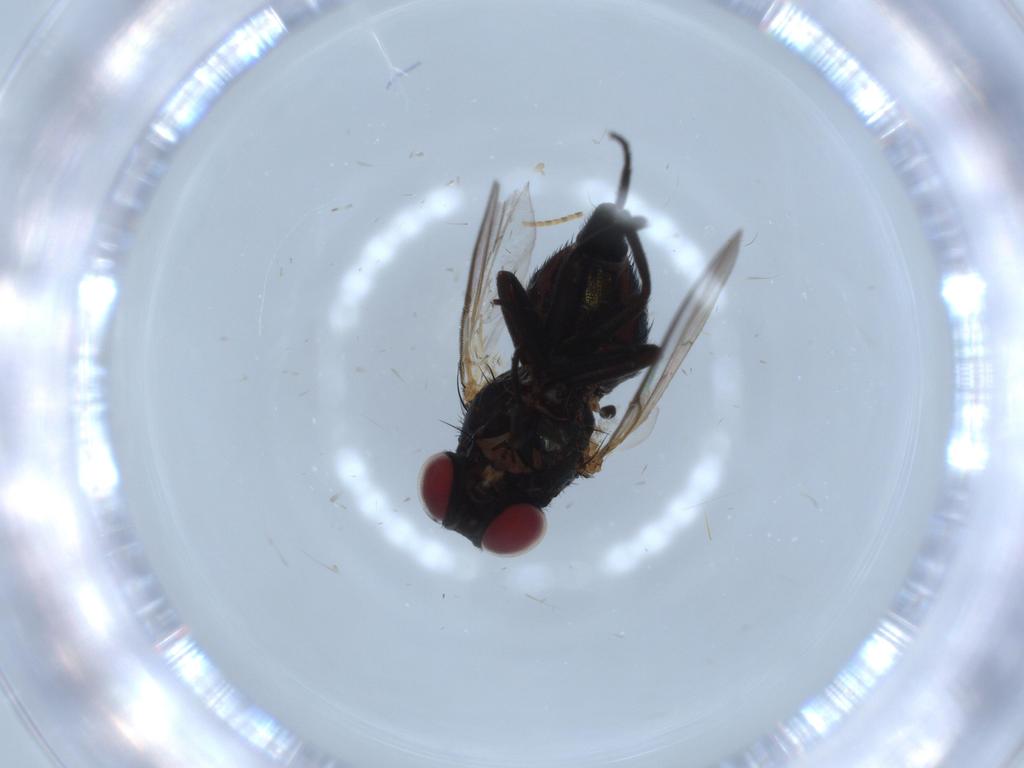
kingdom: Animalia
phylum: Arthropoda
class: Insecta
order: Diptera
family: Agromyzidae
